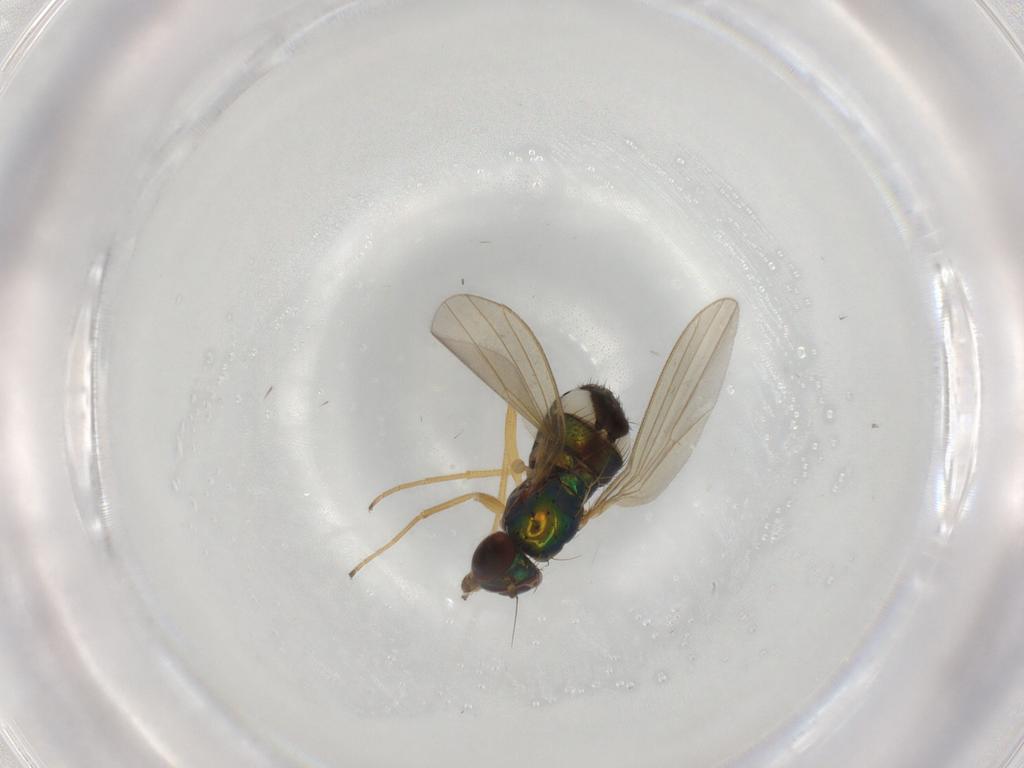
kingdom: Animalia
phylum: Arthropoda
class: Insecta
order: Diptera
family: Dolichopodidae
